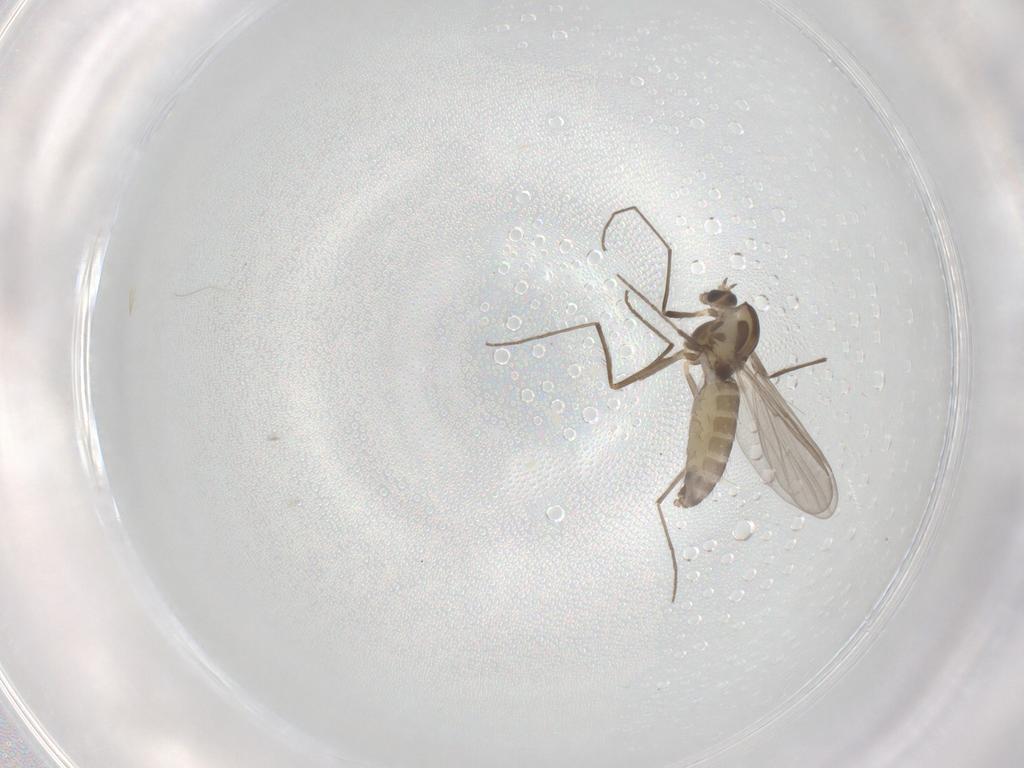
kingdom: Animalia
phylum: Arthropoda
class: Insecta
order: Diptera
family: Chironomidae
